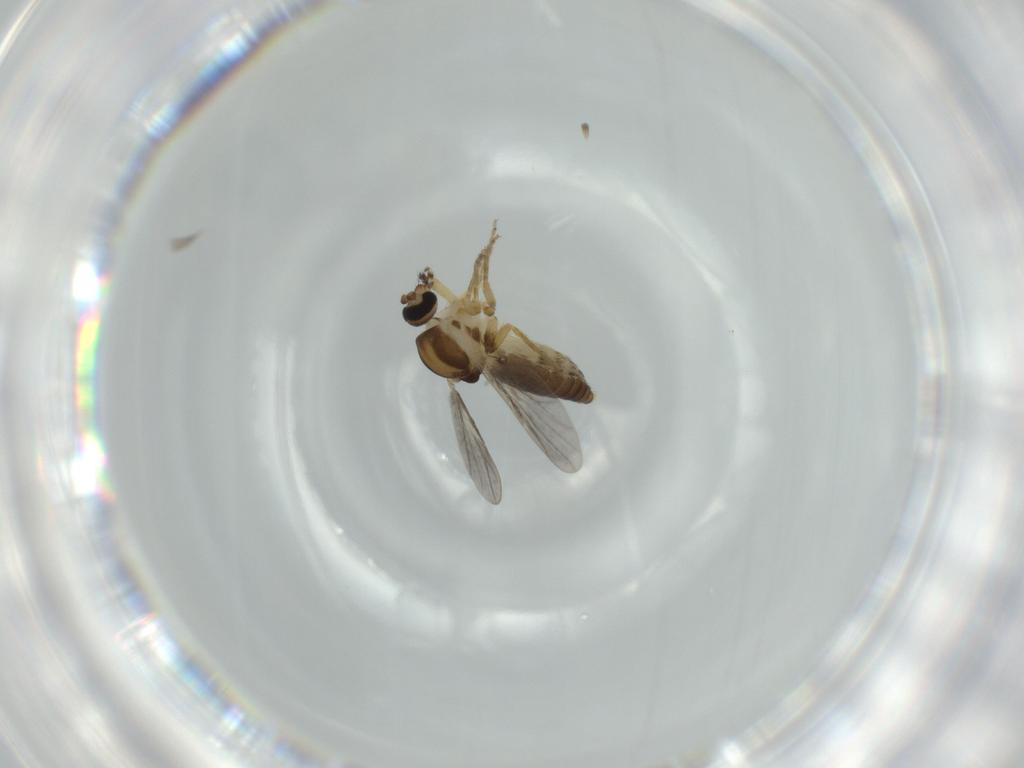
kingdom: Animalia
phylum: Arthropoda
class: Insecta
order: Diptera
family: Ceratopogonidae
